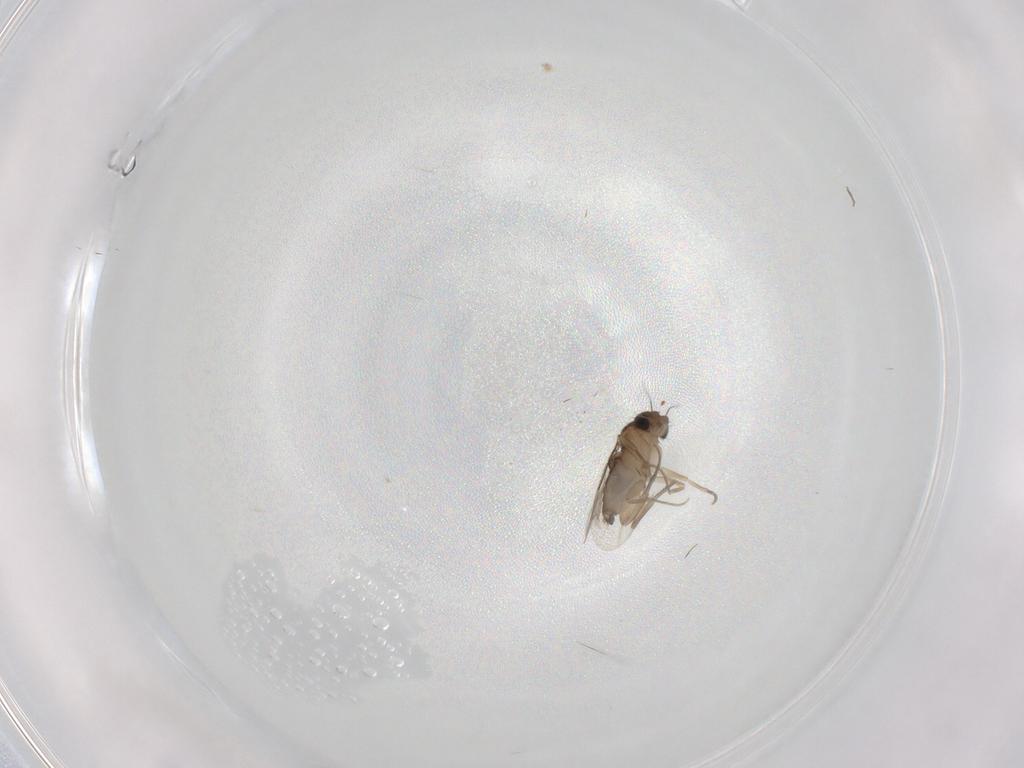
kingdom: Animalia
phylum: Arthropoda
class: Insecta
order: Diptera
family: Phoridae
